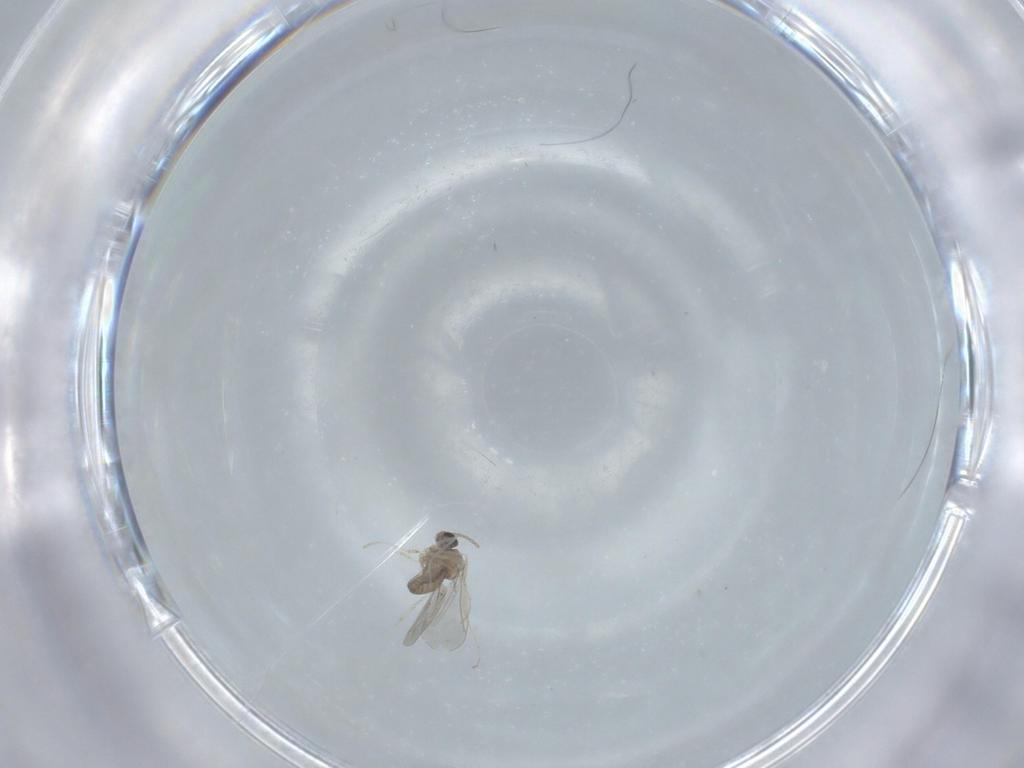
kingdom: Animalia
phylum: Arthropoda
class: Insecta
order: Diptera
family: Cecidomyiidae
